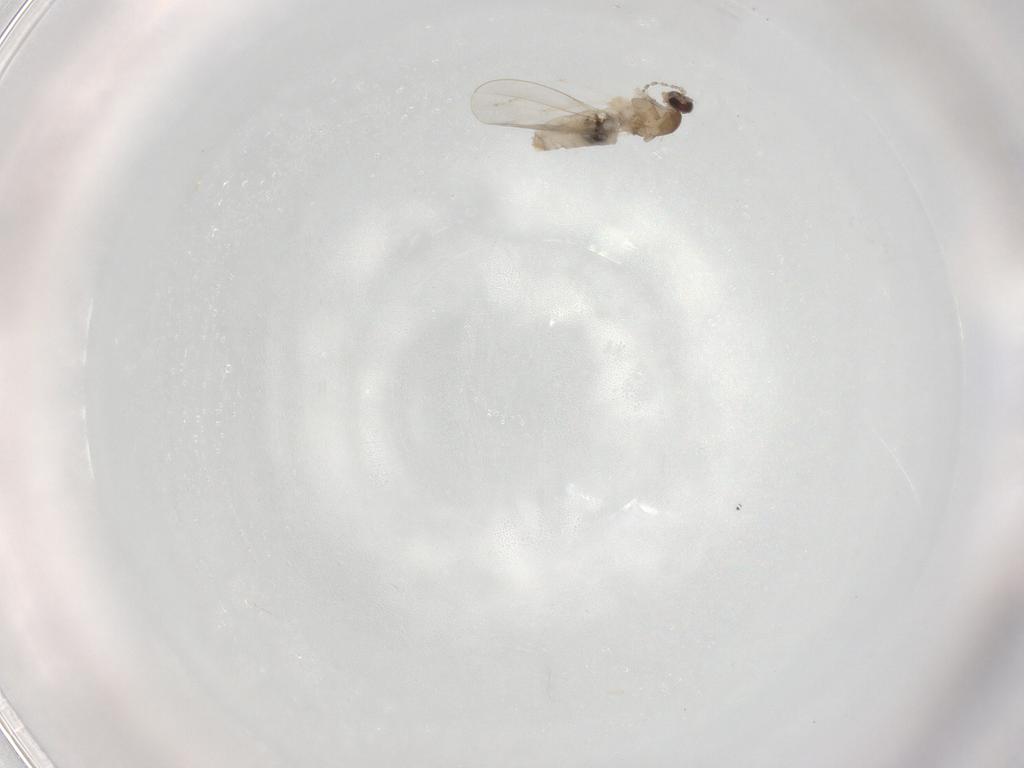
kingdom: Animalia
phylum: Arthropoda
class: Insecta
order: Diptera
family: Cecidomyiidae
